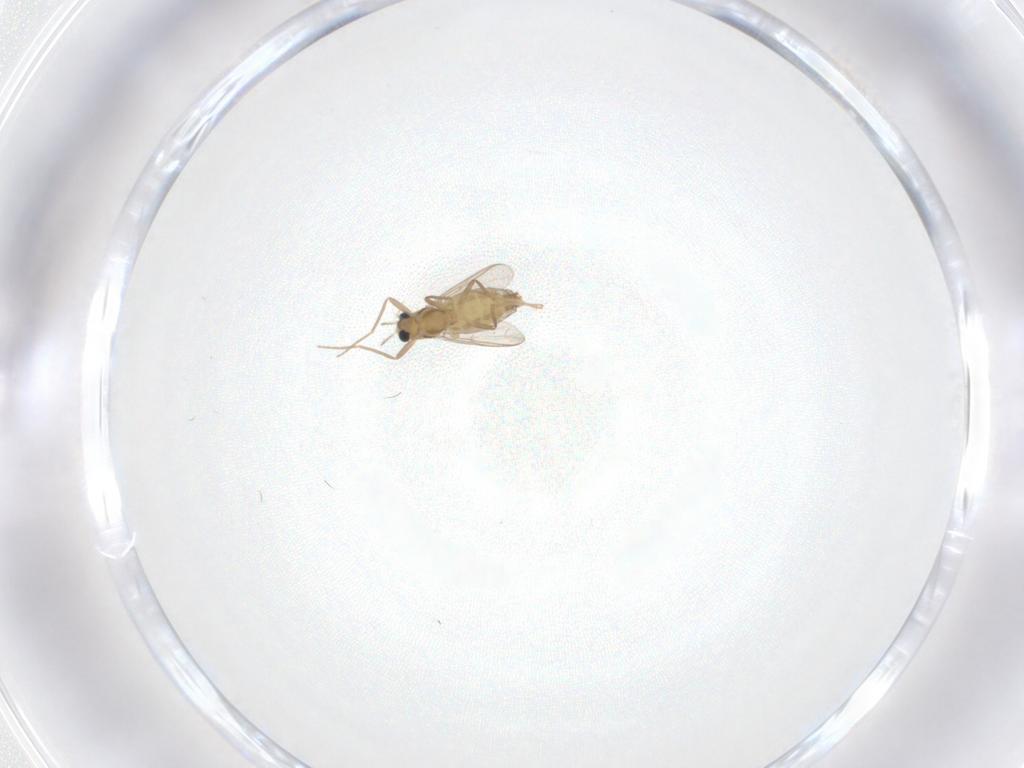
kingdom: Animalia
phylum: Arthropoda
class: Insecta
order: Diptera
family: Chironomidae
